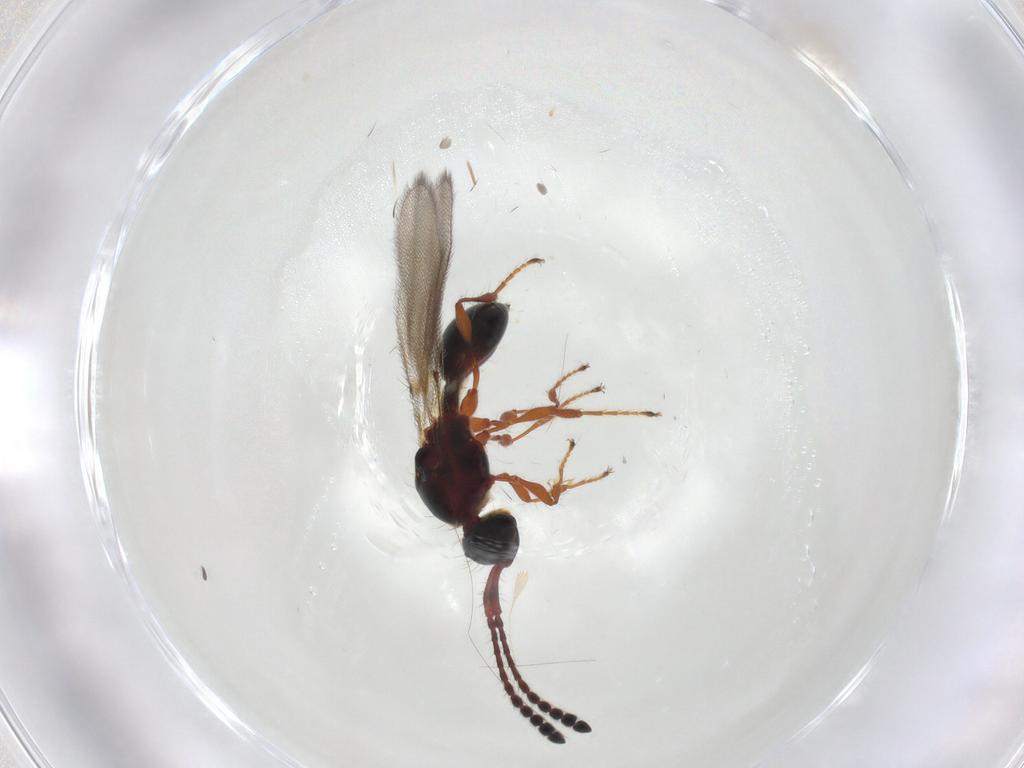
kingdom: Animalia
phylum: Arthropoda
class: Insecta
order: Hymenoptera
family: Diapriidae
